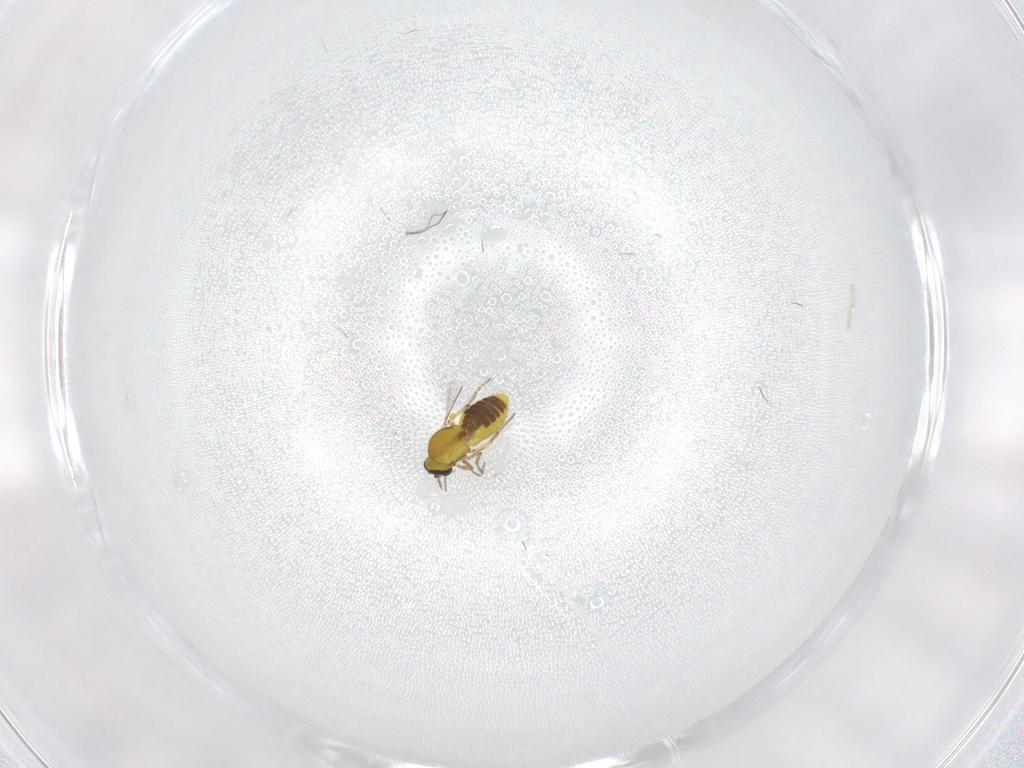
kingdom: Animalia
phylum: Arthropoda
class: Insecta
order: Diptera
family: Ceratopogonidae
